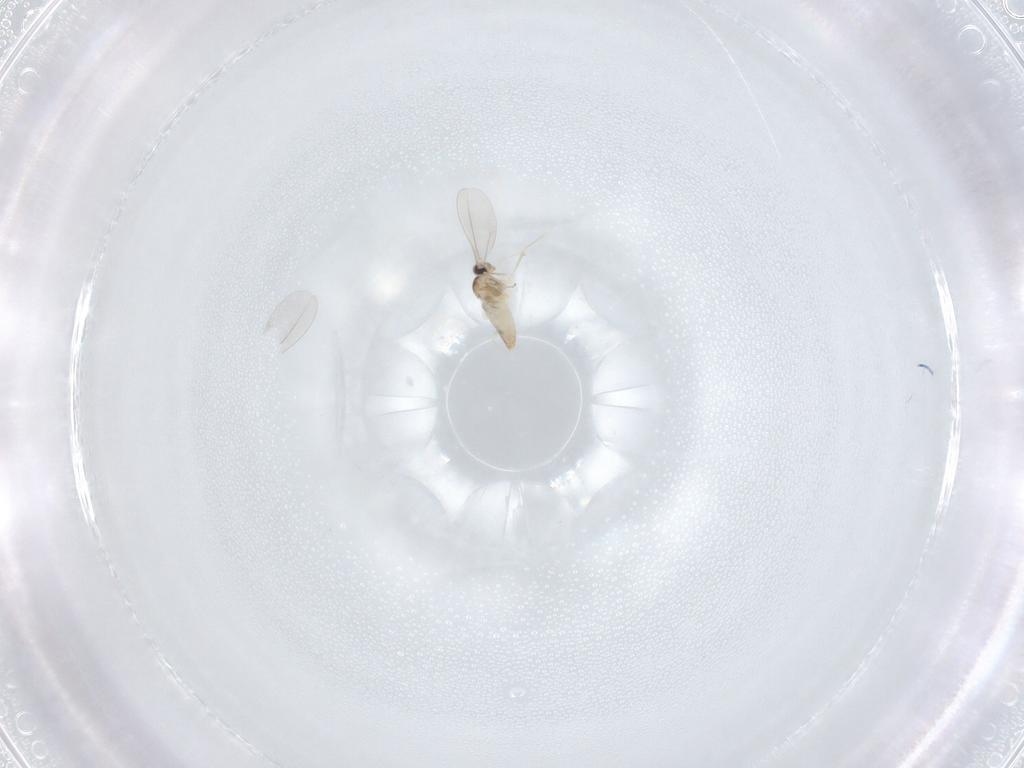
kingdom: Animalia
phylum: Arthropoda
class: Insecta
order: Diptera
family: Cecidomyiidae
